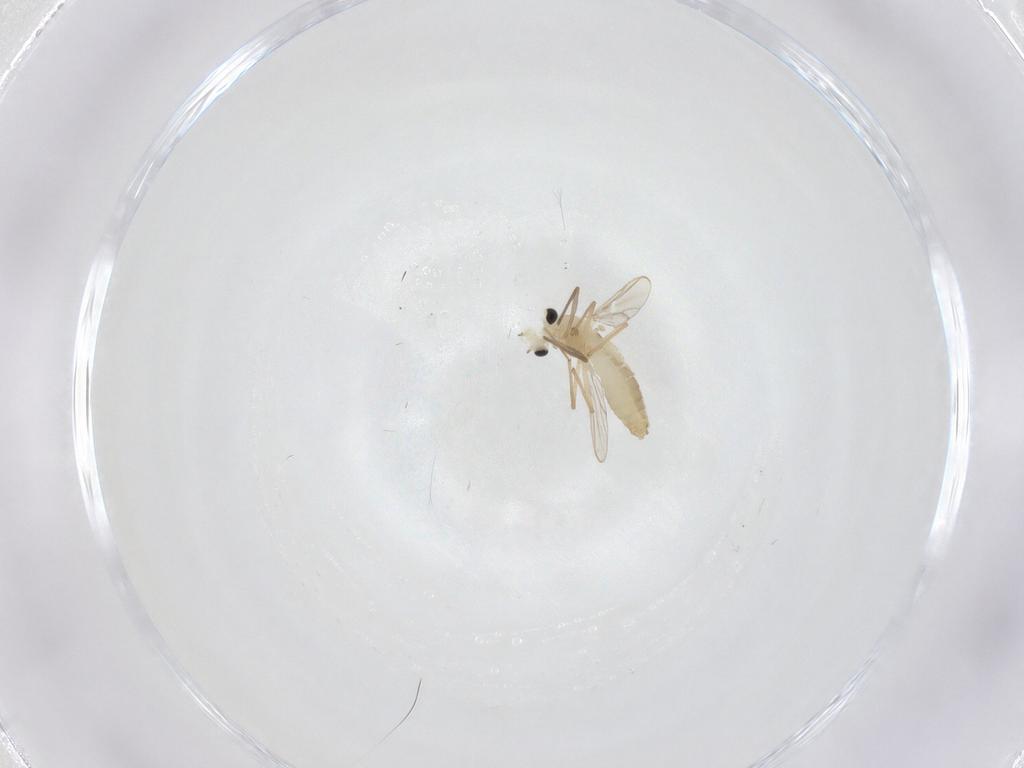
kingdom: Animalia
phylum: Arthropoda
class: Insecta
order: Diptera
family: Chironomidae
